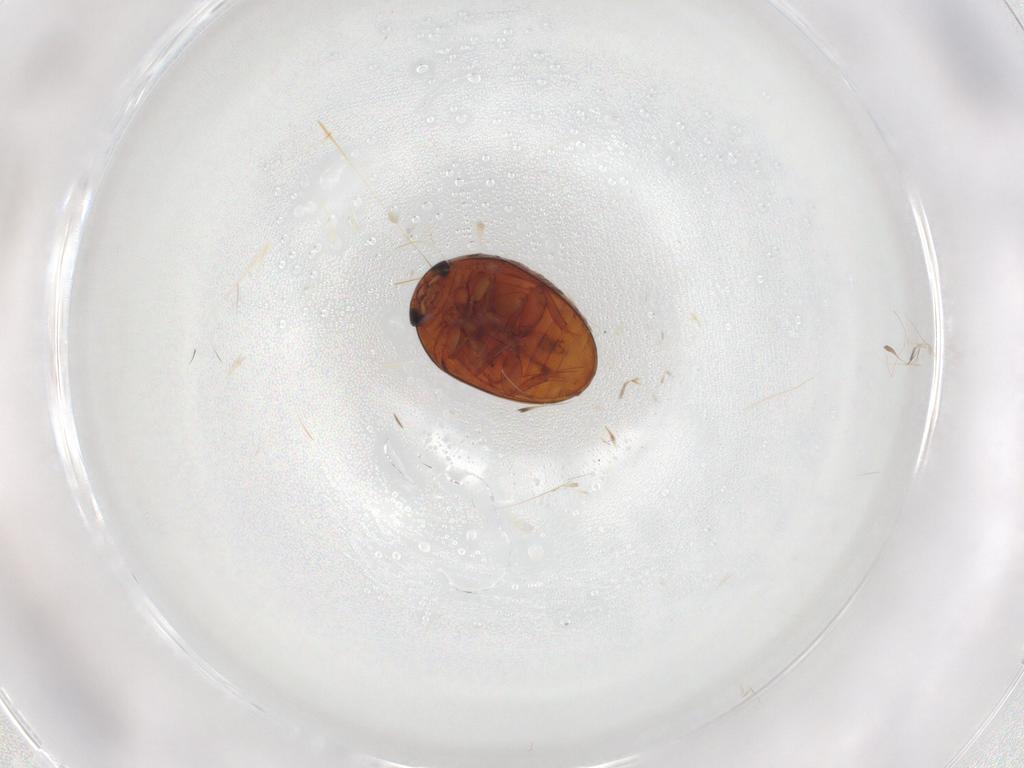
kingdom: Animalia
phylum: Arthropoda
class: Insecta
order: Coleoptera
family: Phalacridae
